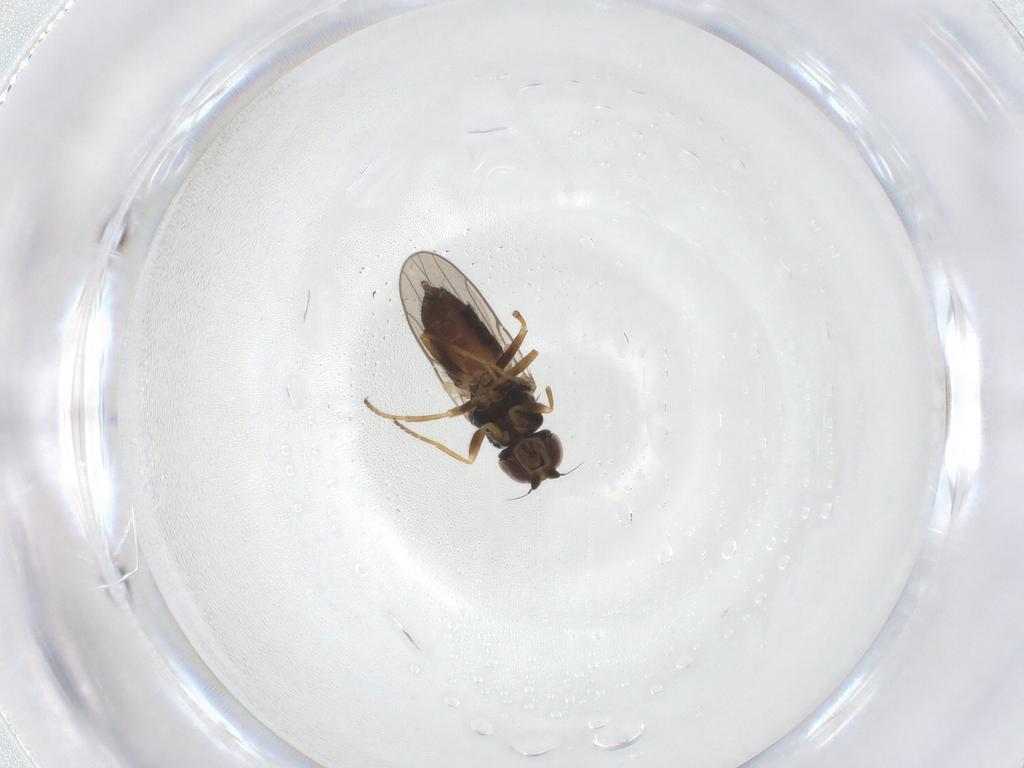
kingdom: Animalia
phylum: Arthropoda
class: Insecta
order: Diptera
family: Chloropidae
